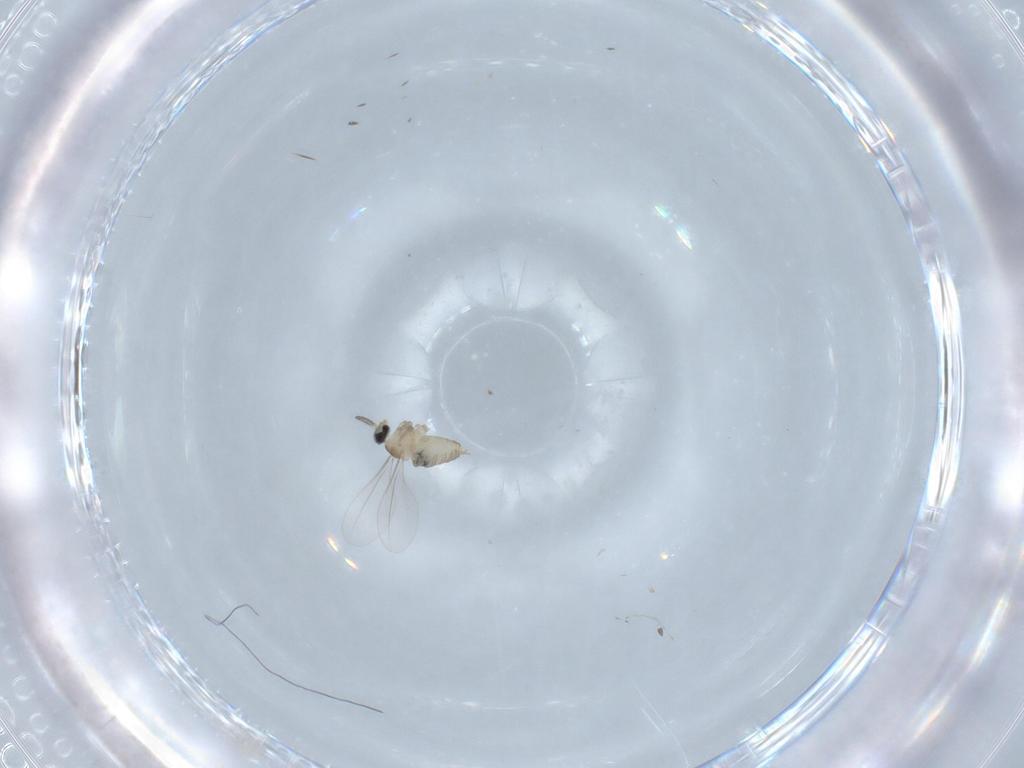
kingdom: Animalia
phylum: Arthropoda
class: Insecta
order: Diptera
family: Cecidomyiidae
